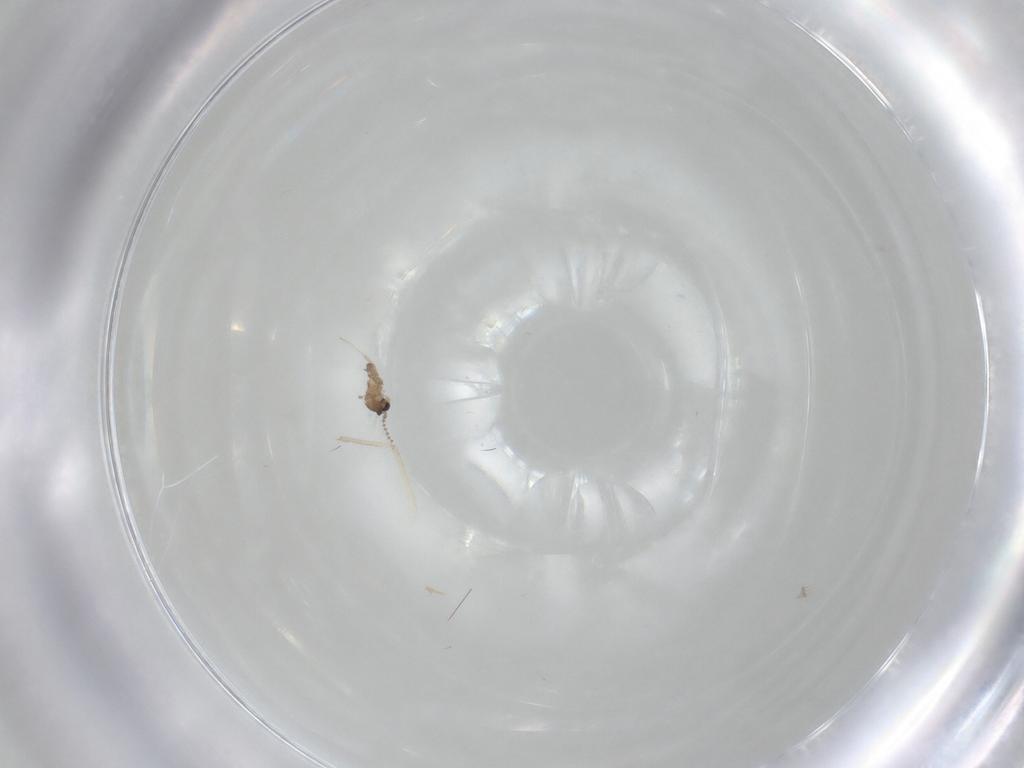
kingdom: Animalia
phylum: Arthropoda
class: Insecta
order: Diptera
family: Cecidomyiidae
